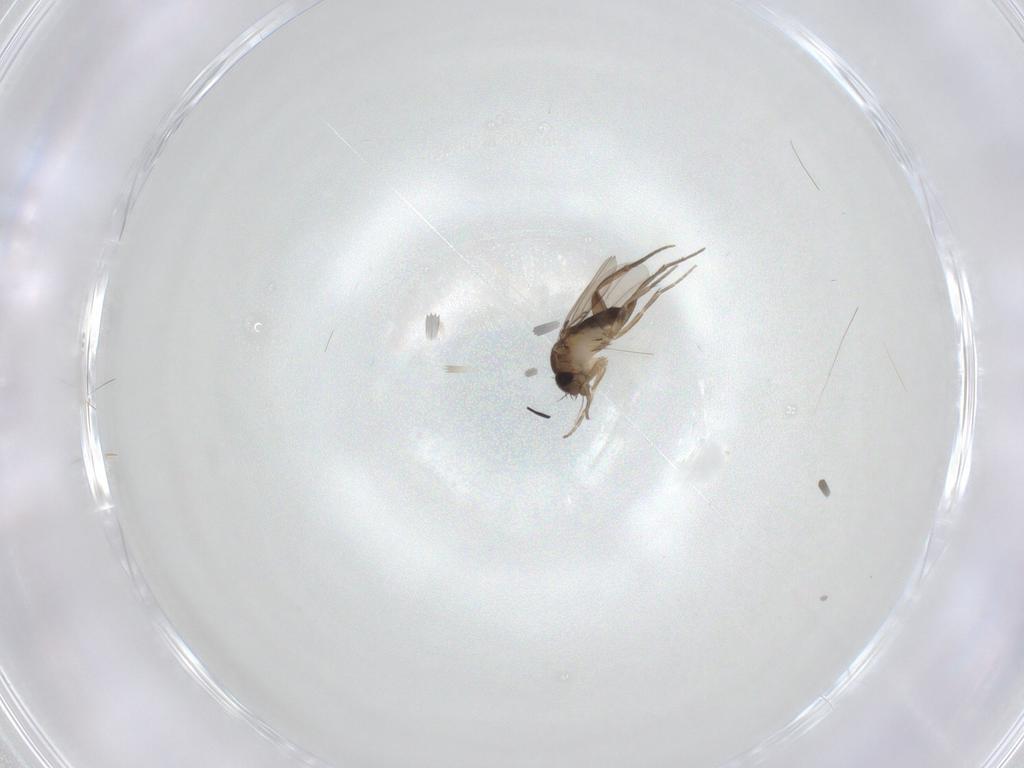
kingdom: Animalia
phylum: Arthropoda
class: Insecta
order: Diptera
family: Phoridae
